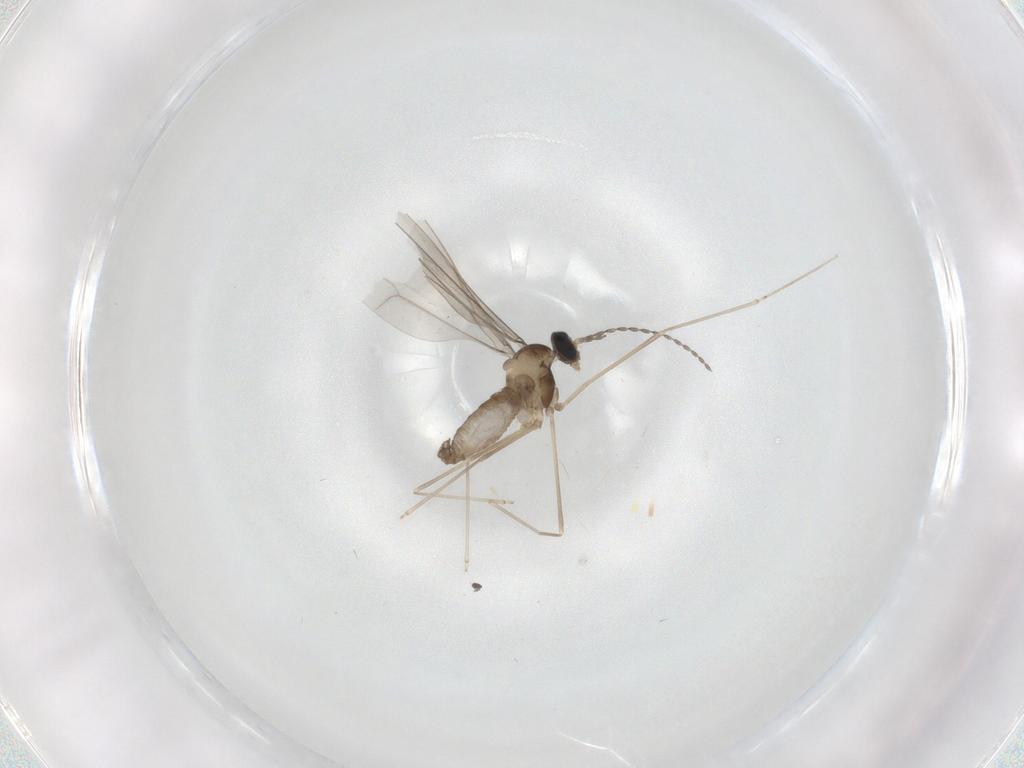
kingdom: Animalia
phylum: Arthropoda
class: Insecta
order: Diptera
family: Cecidomyiidae
